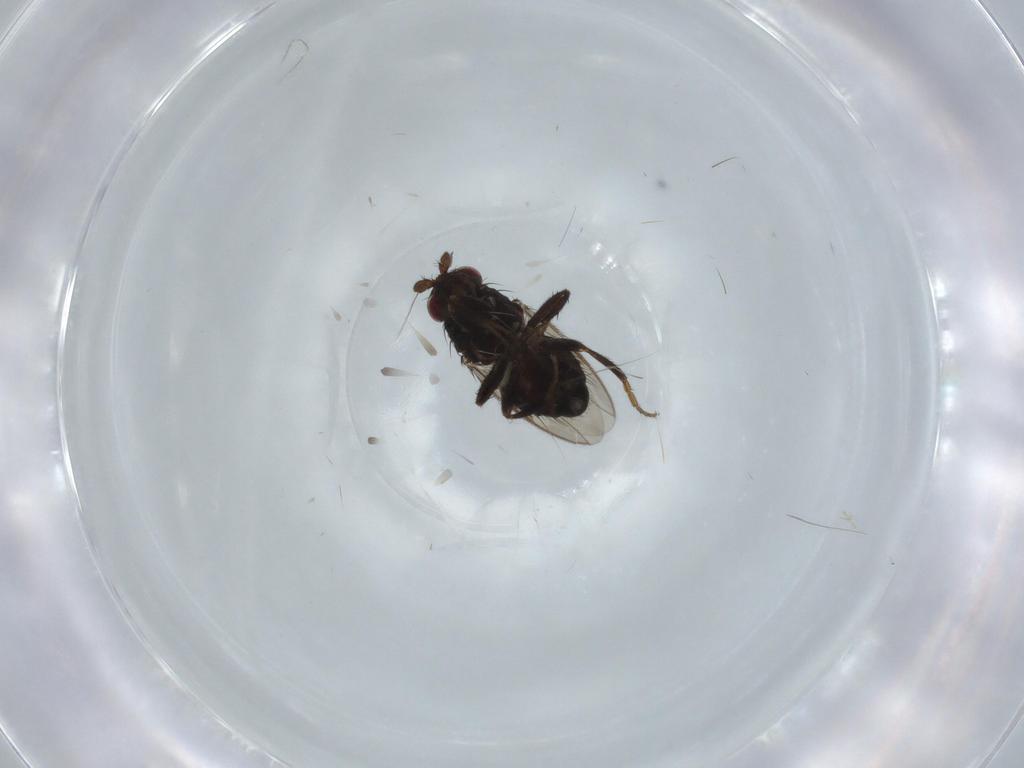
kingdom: Animalia
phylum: Arthropoda
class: Insecta
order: Diptera
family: Sphaeroceridae
